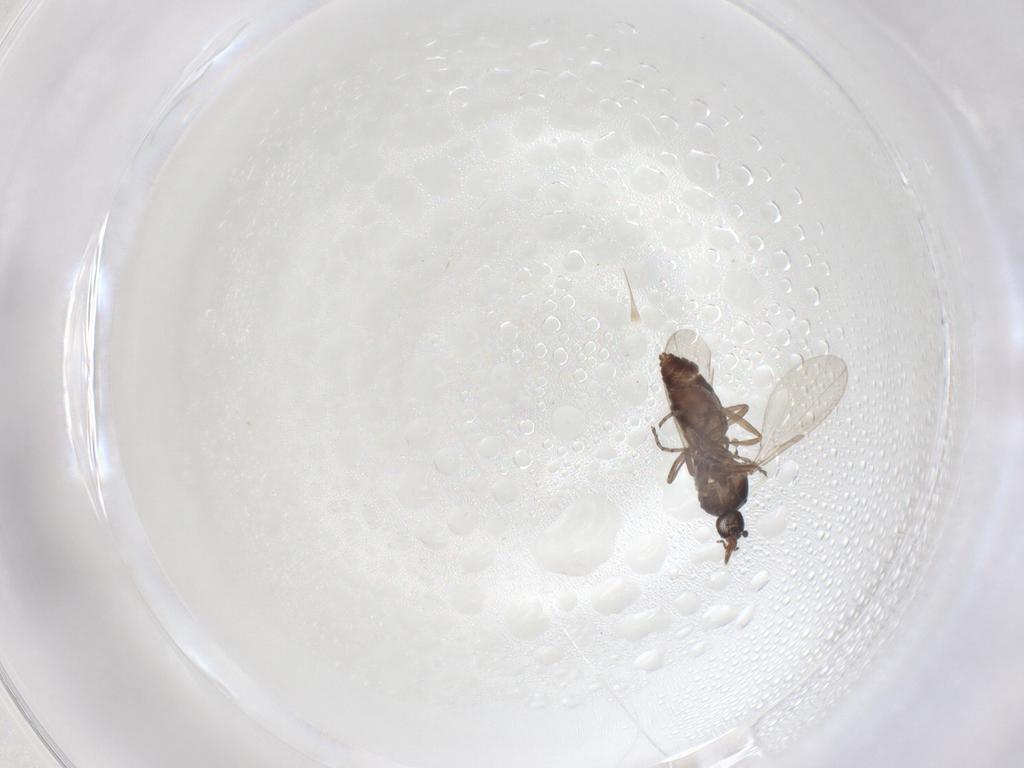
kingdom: Animalia
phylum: Arthropoda
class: Insecta
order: Diptera
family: Ceratopogonidae
